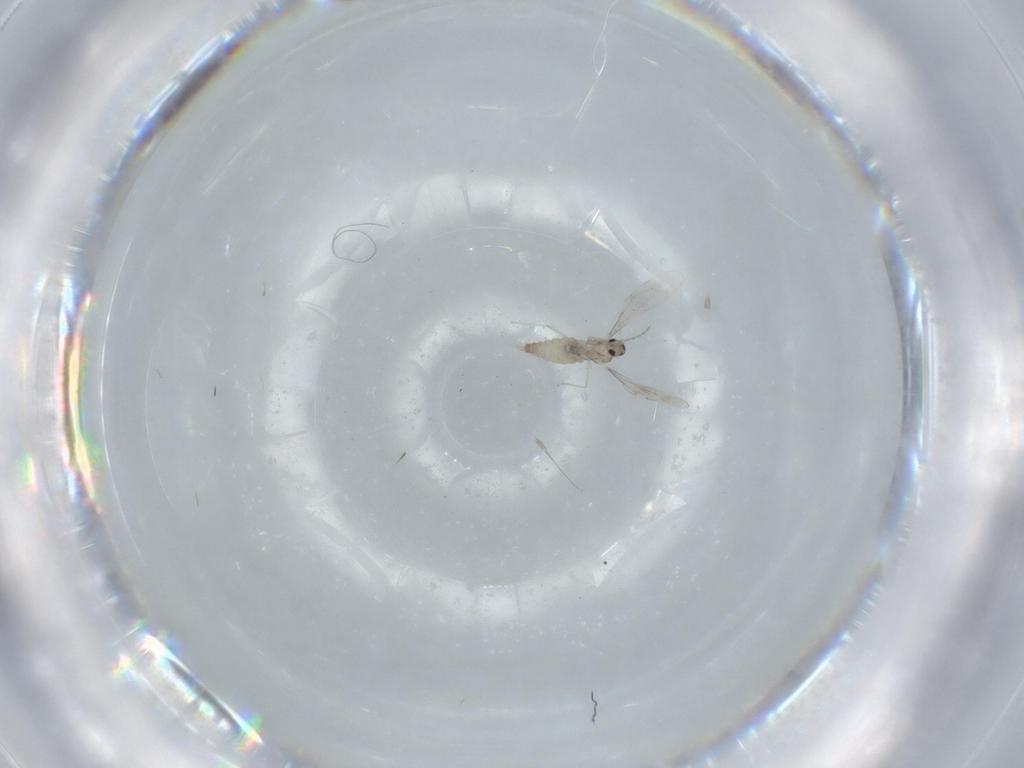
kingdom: Animalia
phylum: Arthropoda
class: Insecta
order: Diptera
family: Cecidomyiidae
